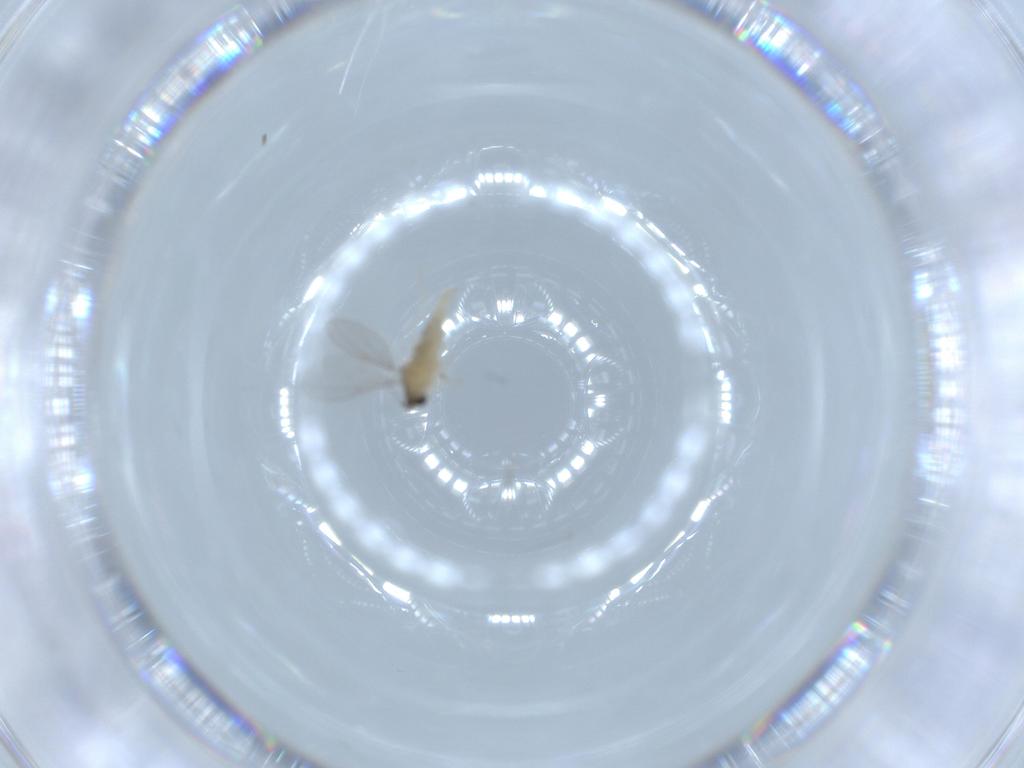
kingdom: Animalia
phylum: Arthropoda
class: Insecta
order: Diptera
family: Cecidomyiidae
